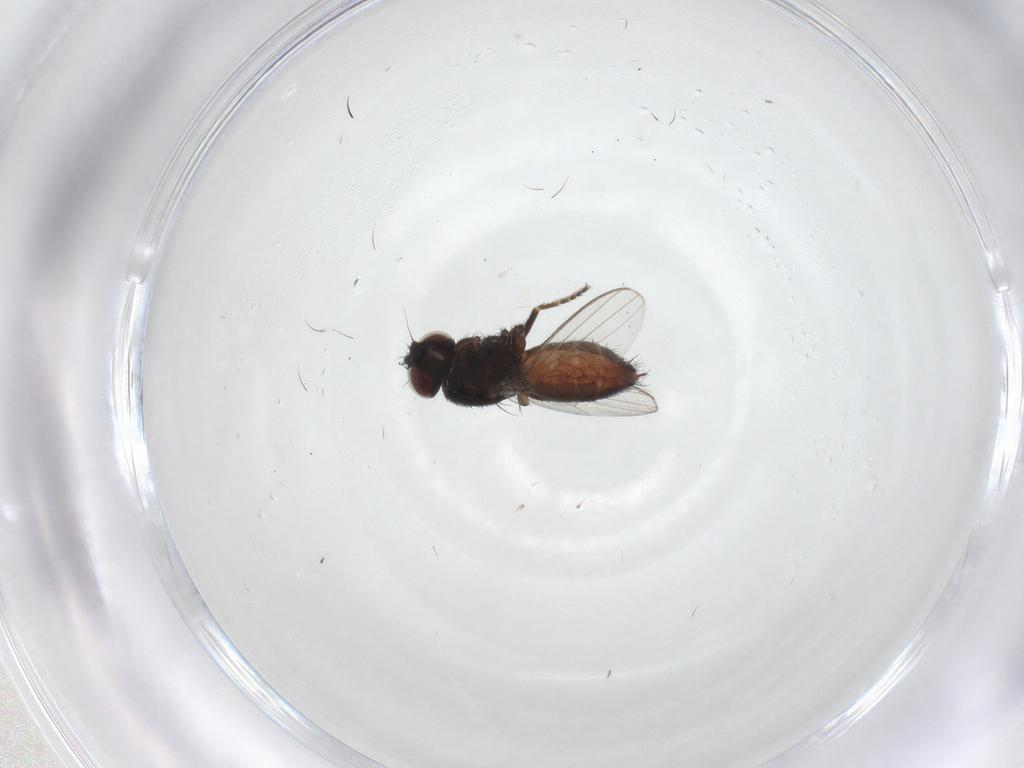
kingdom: Animalia
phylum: Arthropoda
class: Insecta
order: Diptera
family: Milichiidae
